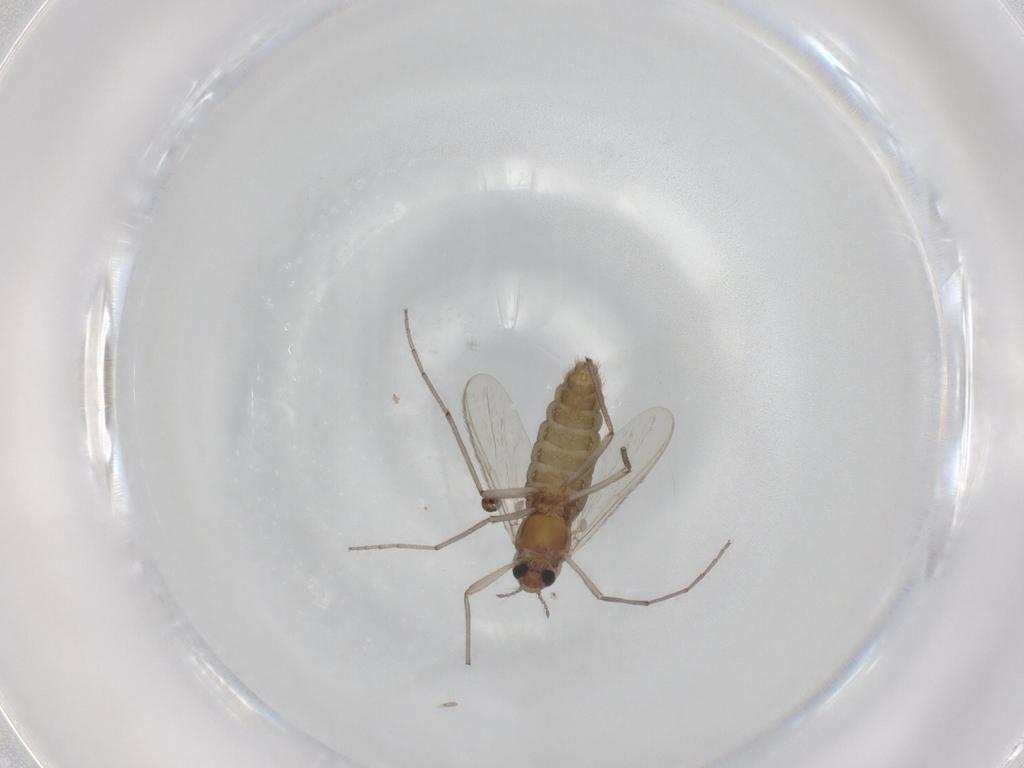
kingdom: Animalia
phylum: Arthropoda
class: Insecta
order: Diptera
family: Chironomidae
